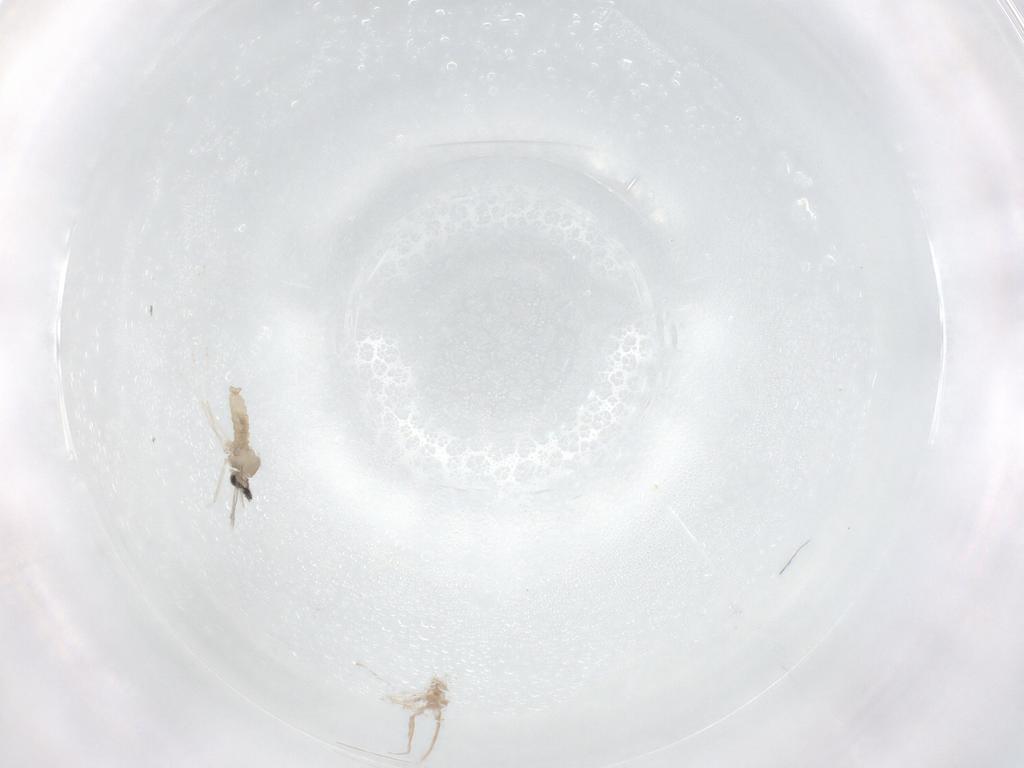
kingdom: Animalia
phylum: Arthropoda
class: Insecta
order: Diptera
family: Cecidomyiidae
